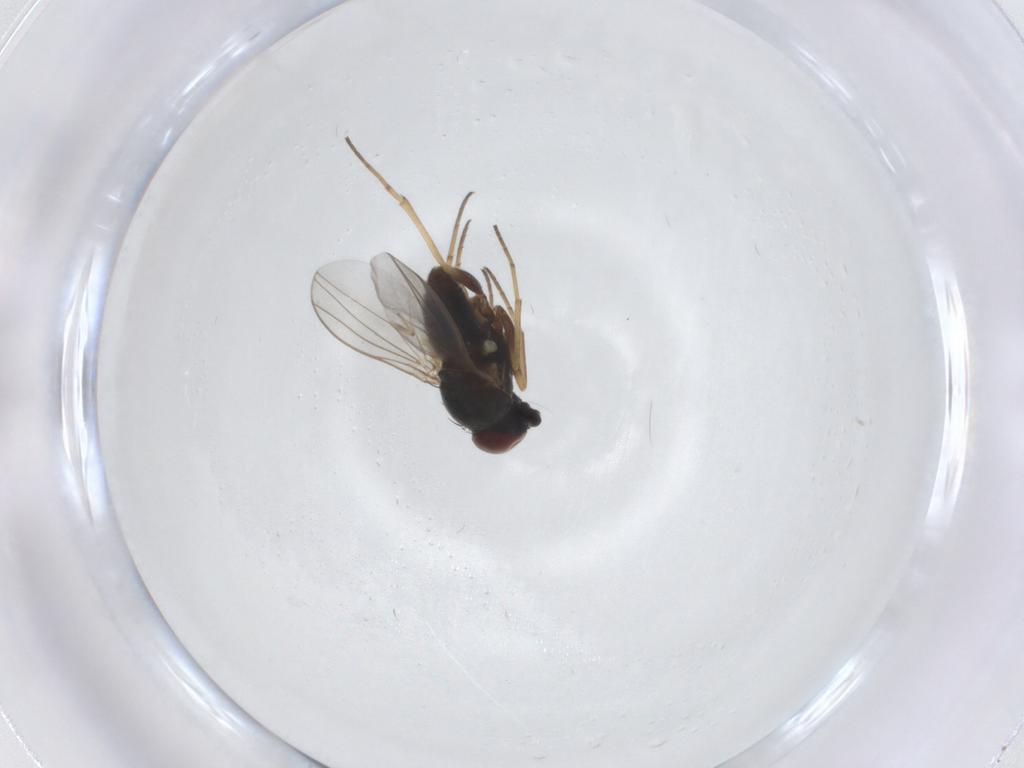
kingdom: Animalia
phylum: Arthropoda
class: Insecta
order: Diptera
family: Dolichopodidae
